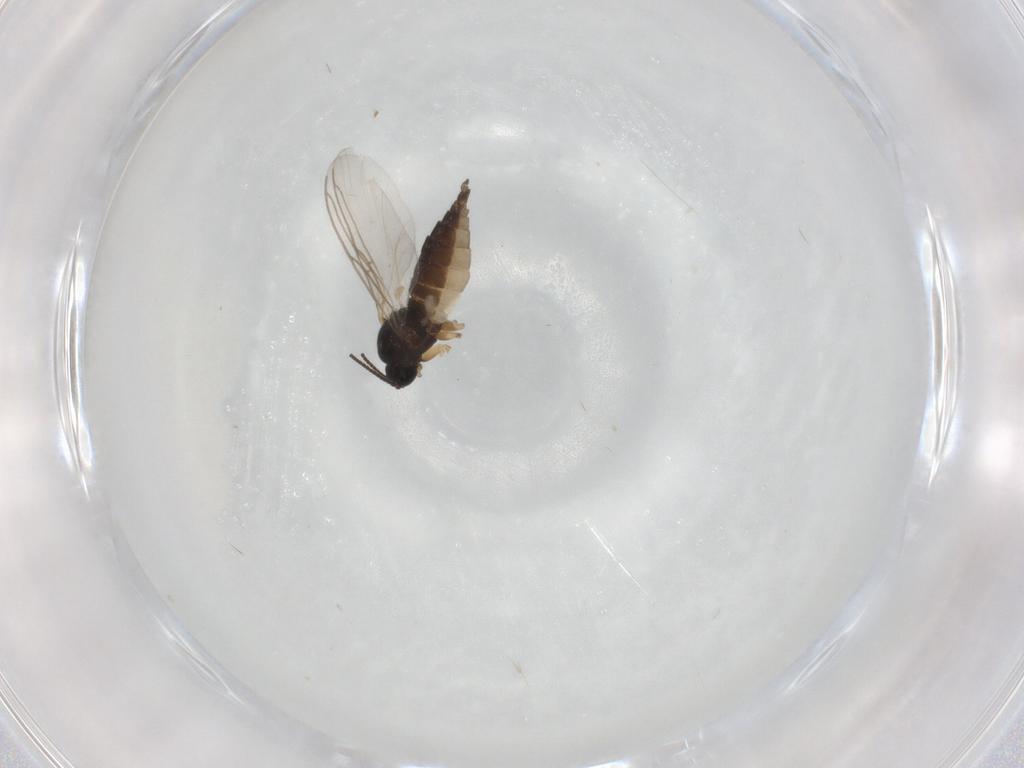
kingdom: Animalia
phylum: Arthropoda
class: Insecta
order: Diptera
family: Sciaridae
